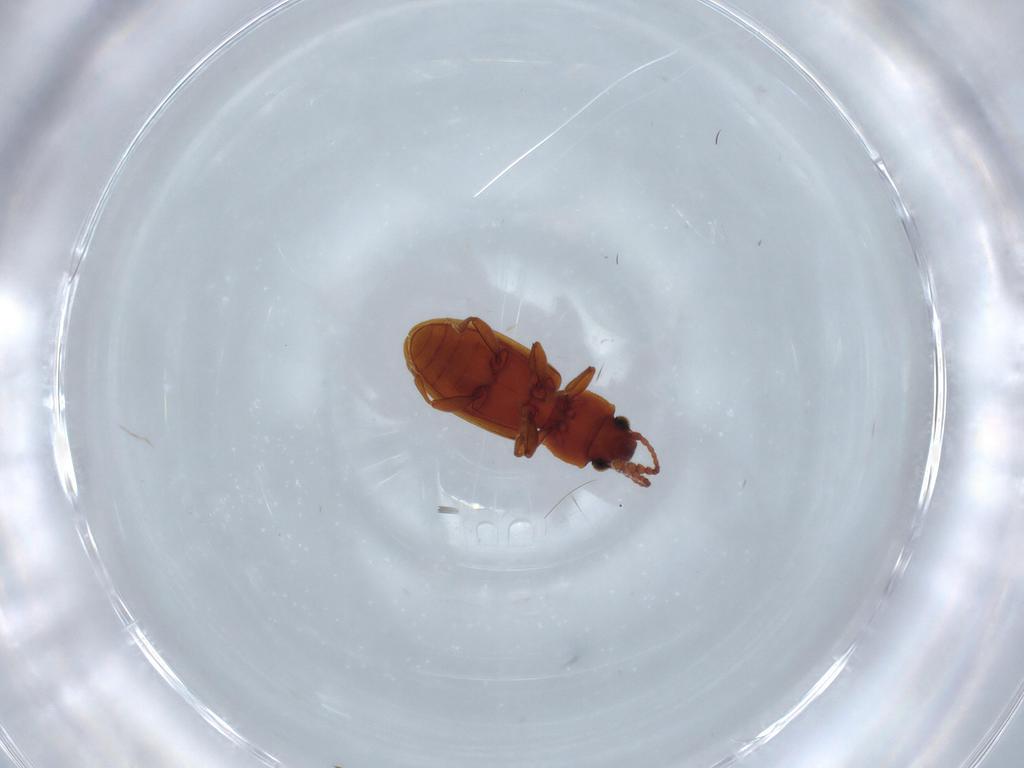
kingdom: Animalia
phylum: Arthropoda
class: Insecta
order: Coleoptera
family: Silvanidae
